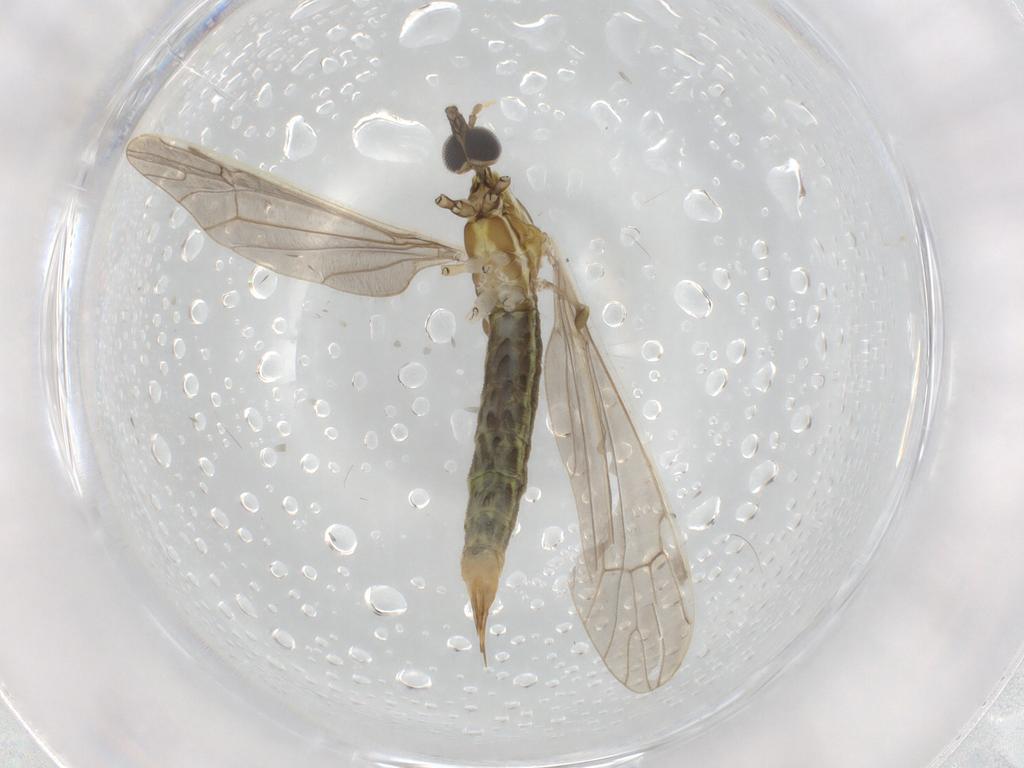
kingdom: Animalia
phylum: Arthropoda
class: Insecta
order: Diptera
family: Limoniidae
